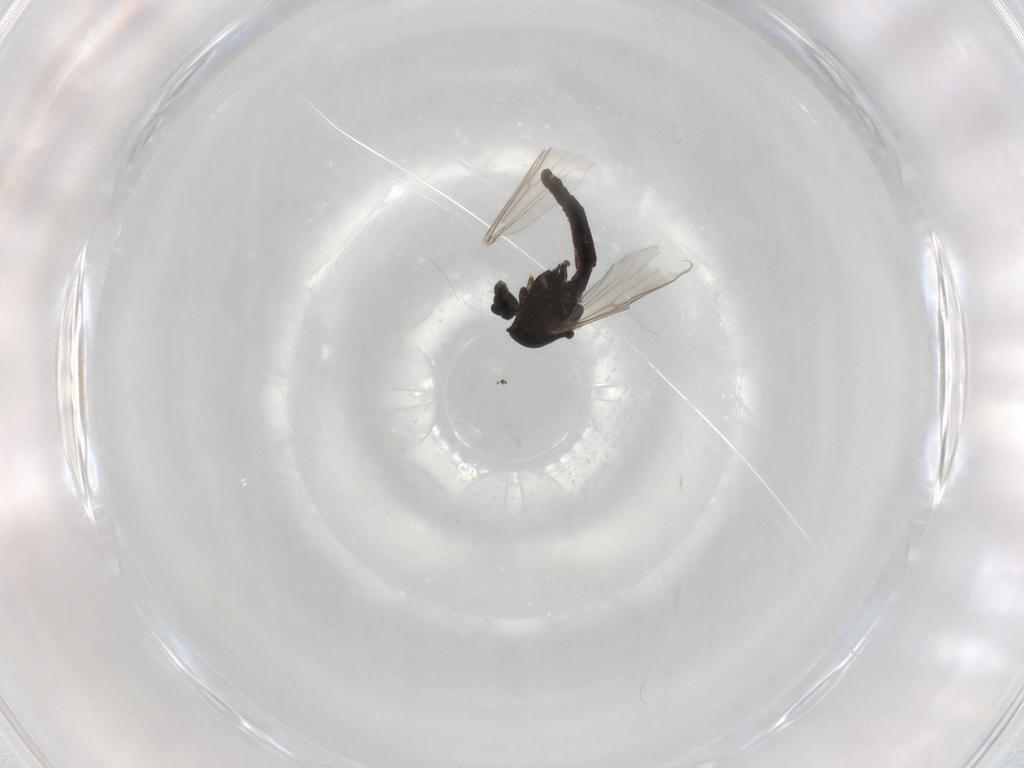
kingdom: Animalia
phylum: Arthropoda
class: Insecta
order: Diptera
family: Chironomidae
